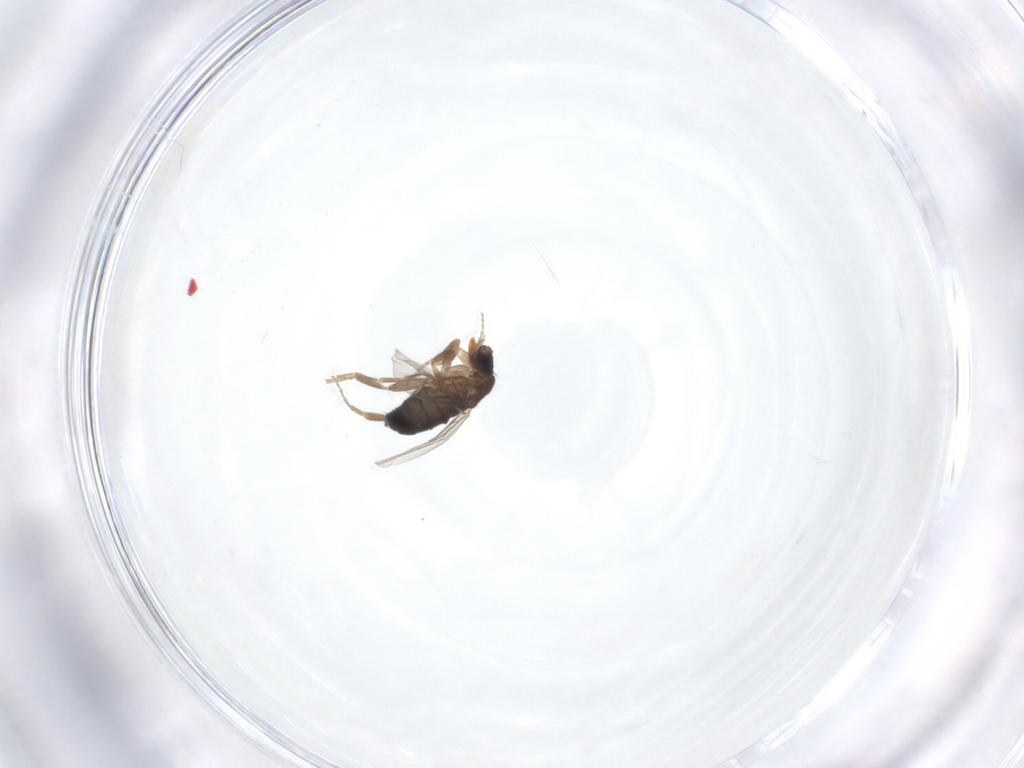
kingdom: Animalia
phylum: Arthropoda
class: Insecta
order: Diptera
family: Phoridae
